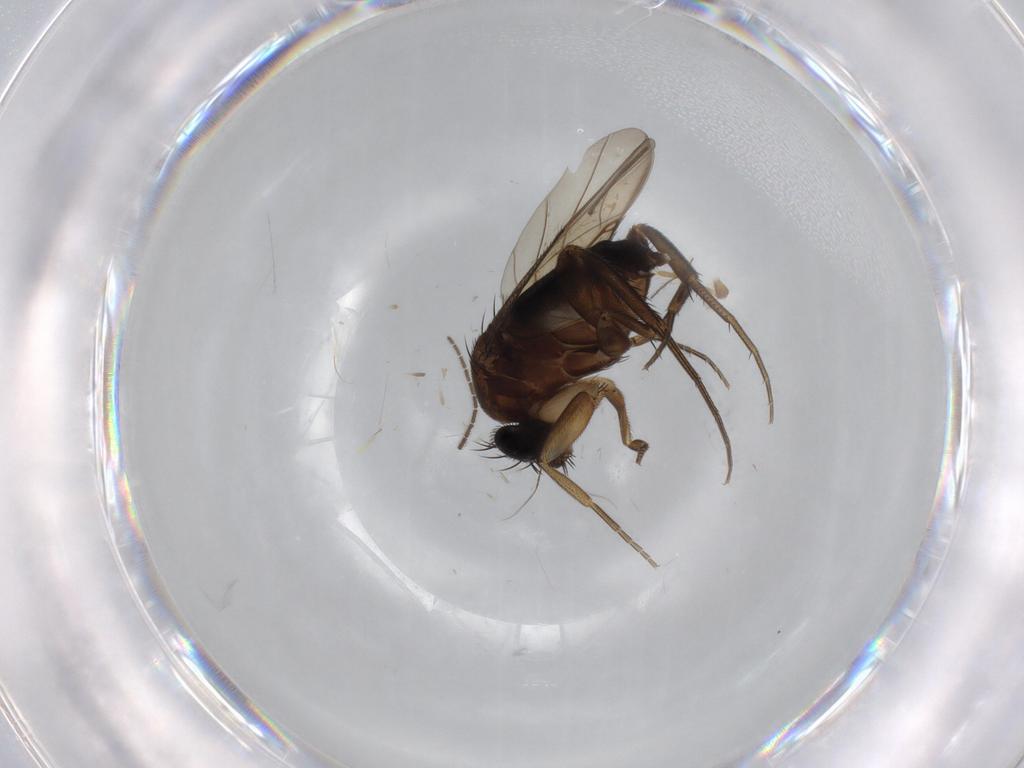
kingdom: Animalia
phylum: Arthropoda
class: Insecta
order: Diptera
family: Phoridae
